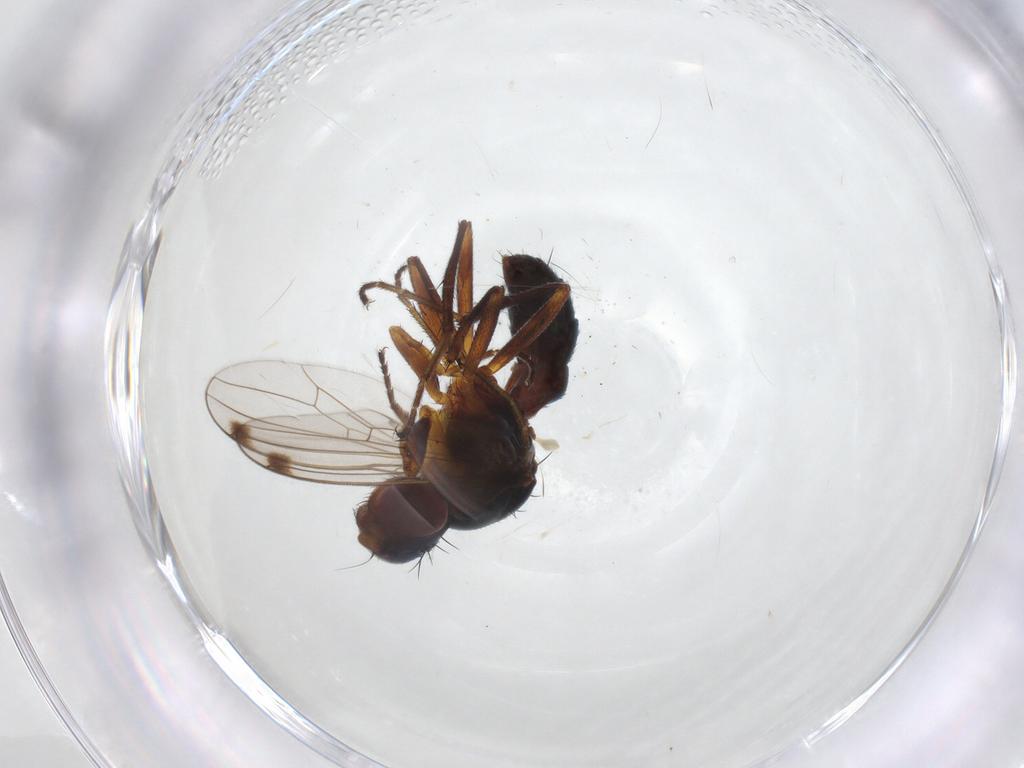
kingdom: Animalia
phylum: Arthropoda
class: Insecta
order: Diptera
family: Sepsidae
